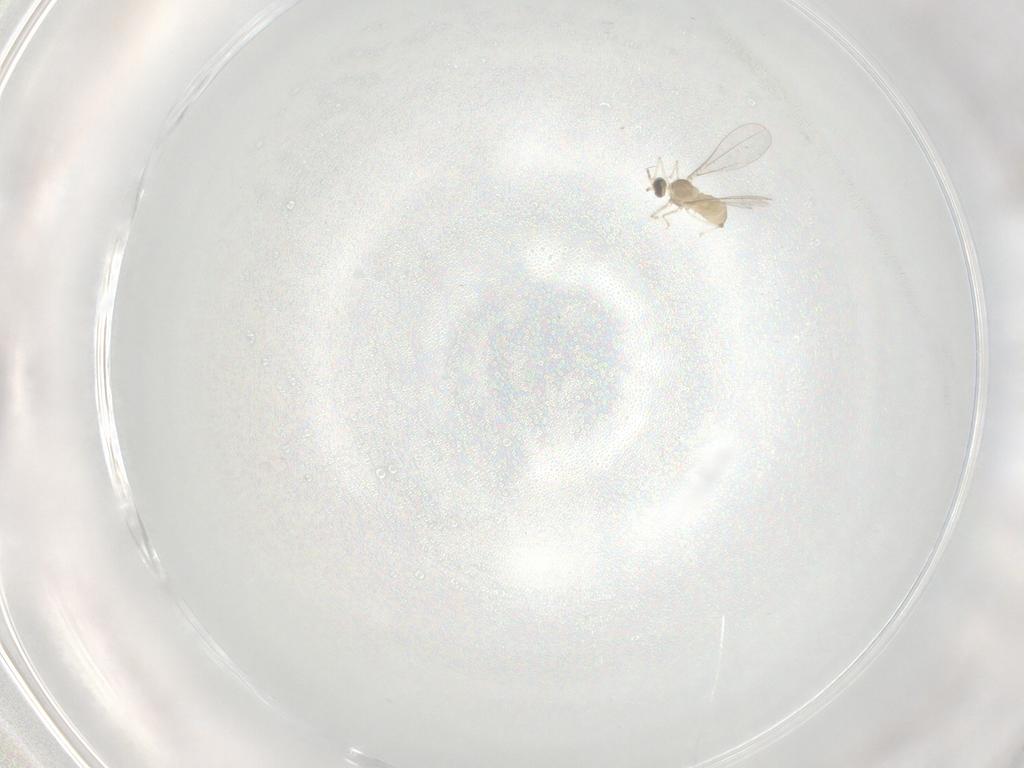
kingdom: Animalia
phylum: Arthropoda
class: Insecta
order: Diptera
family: Cecidomyiidae
